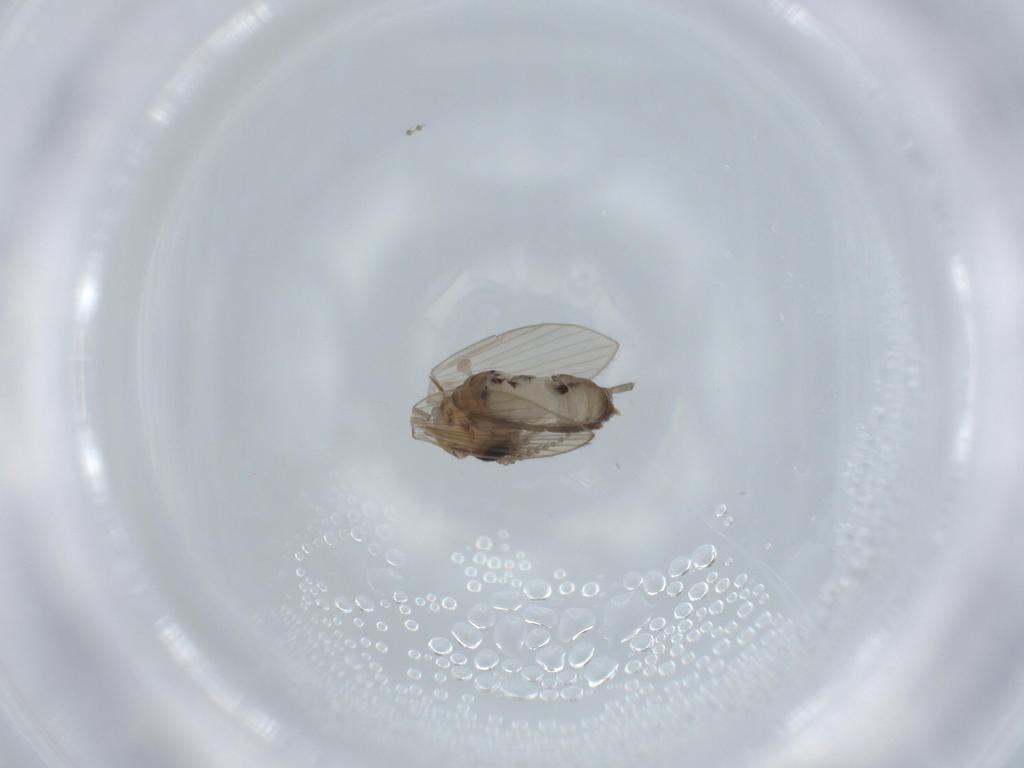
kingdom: Animalia
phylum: Arthropoda
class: Insecta
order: Diptera
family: Psychodidae
